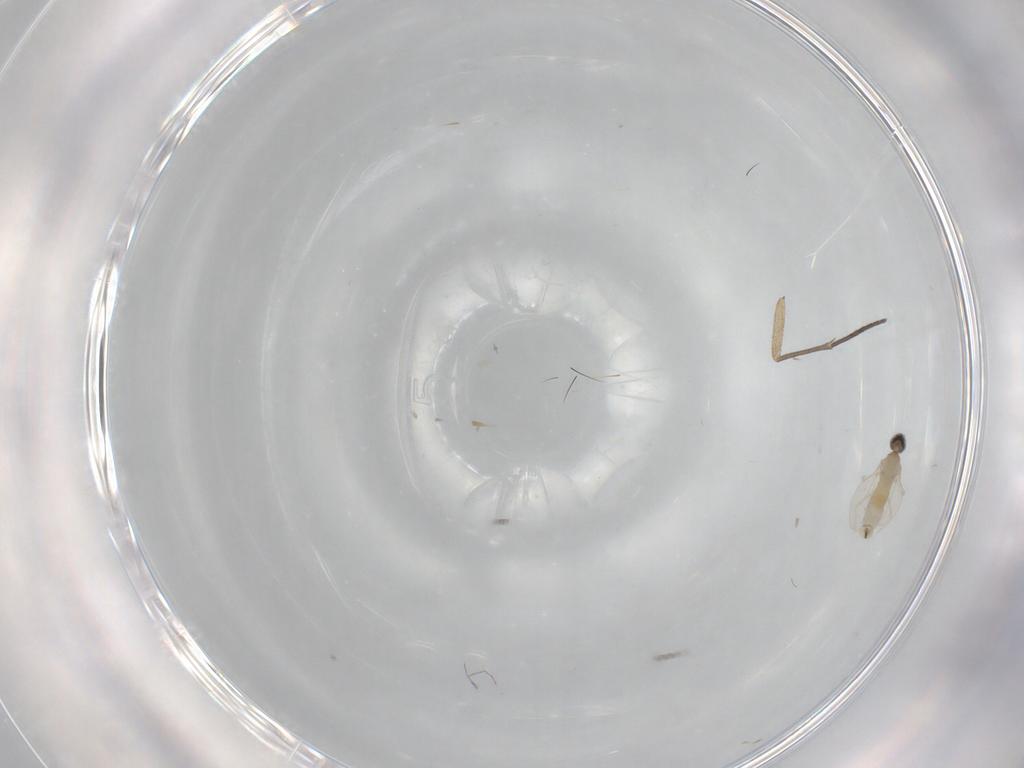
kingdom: Animalia
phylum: Arthropoda
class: Insecta
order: Diptera
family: Cecidomyiidae
